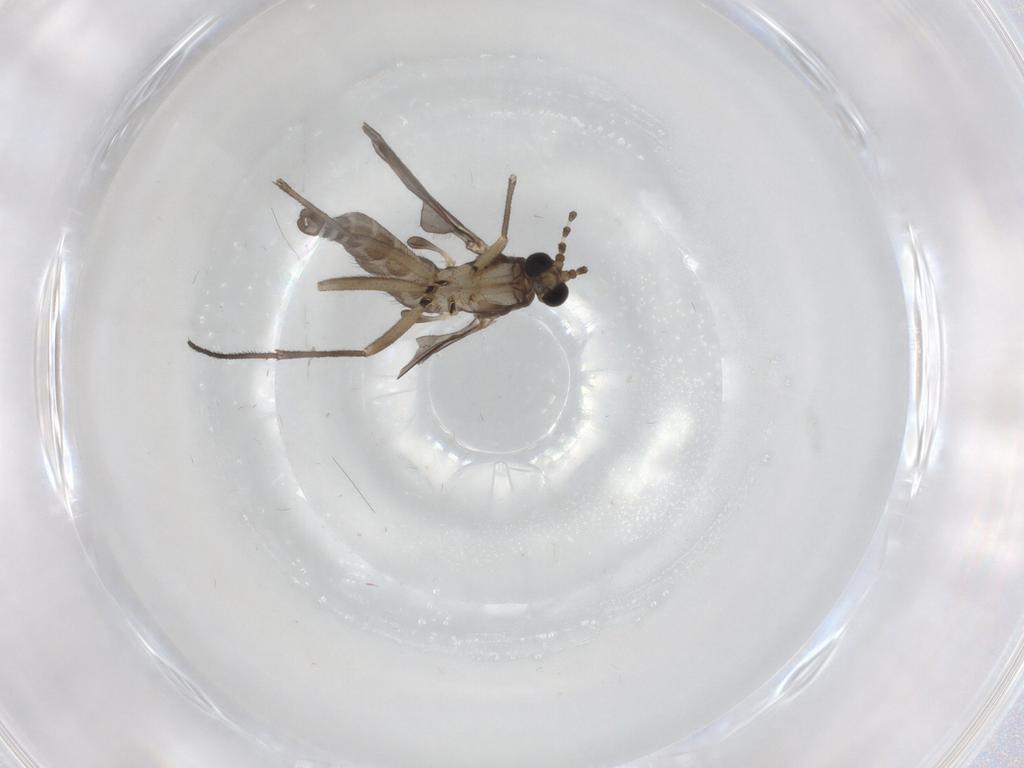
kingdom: Animalia
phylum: Arthropoda
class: Insecta
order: Diptera
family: Sciaridae
